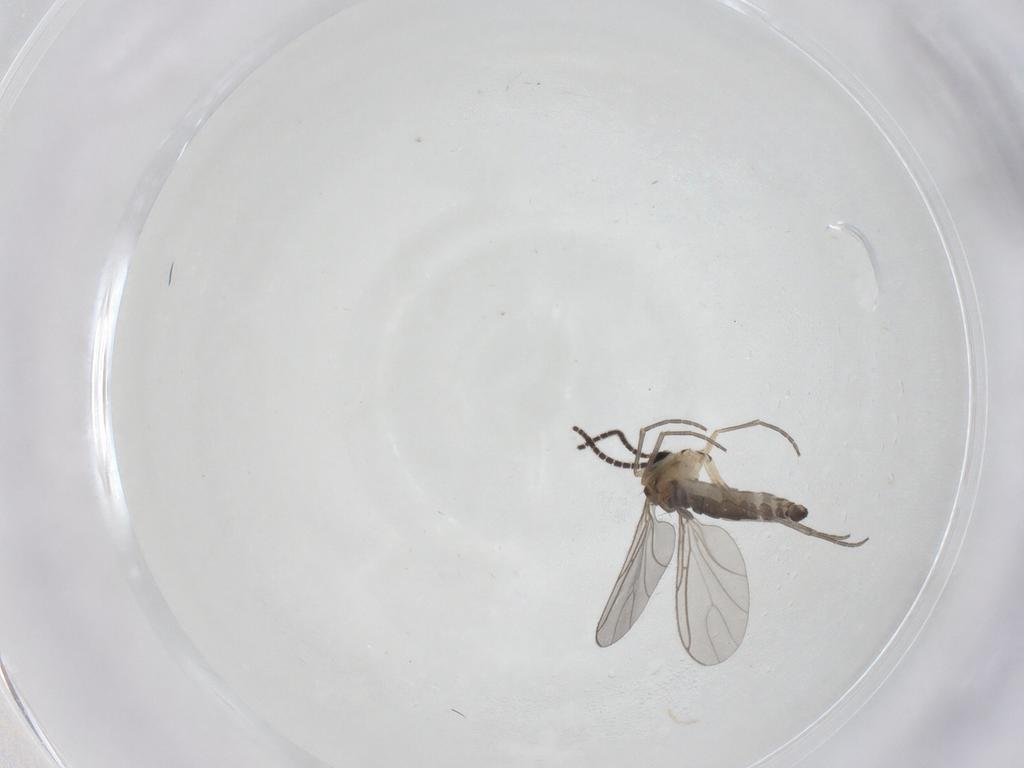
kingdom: Animalia
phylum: Arthropoda
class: Insecta
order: Diptera
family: Sciaridae
